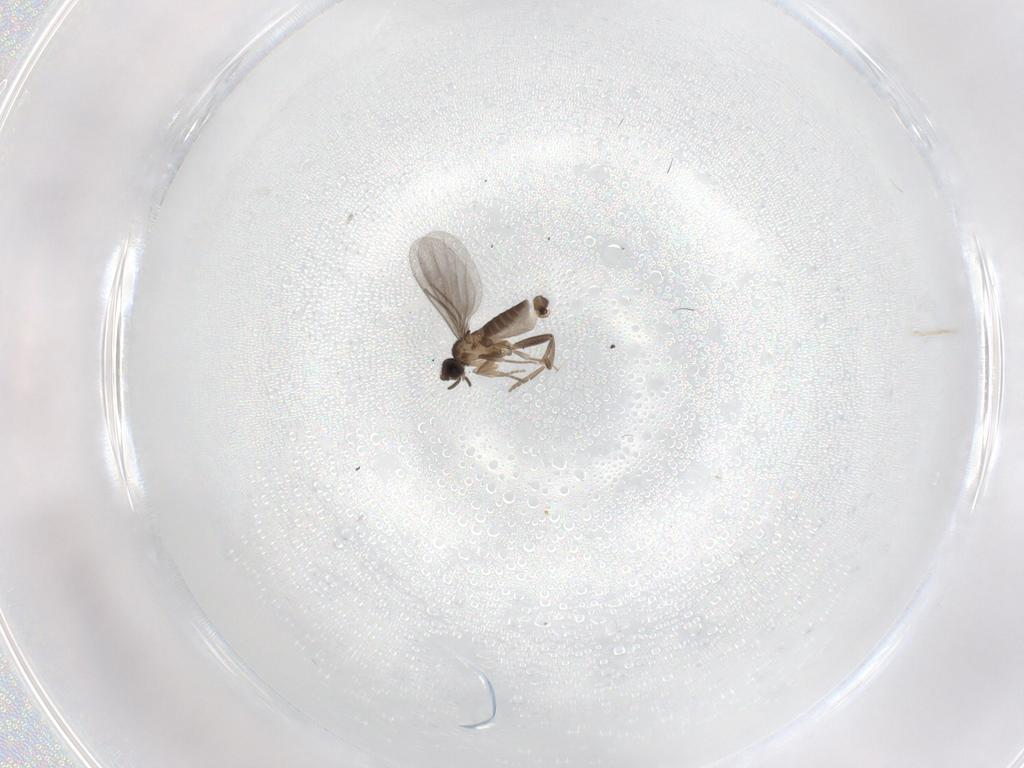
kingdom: Animalia
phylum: Arthropoda
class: Insecta
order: Diptera
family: Psychodidae
